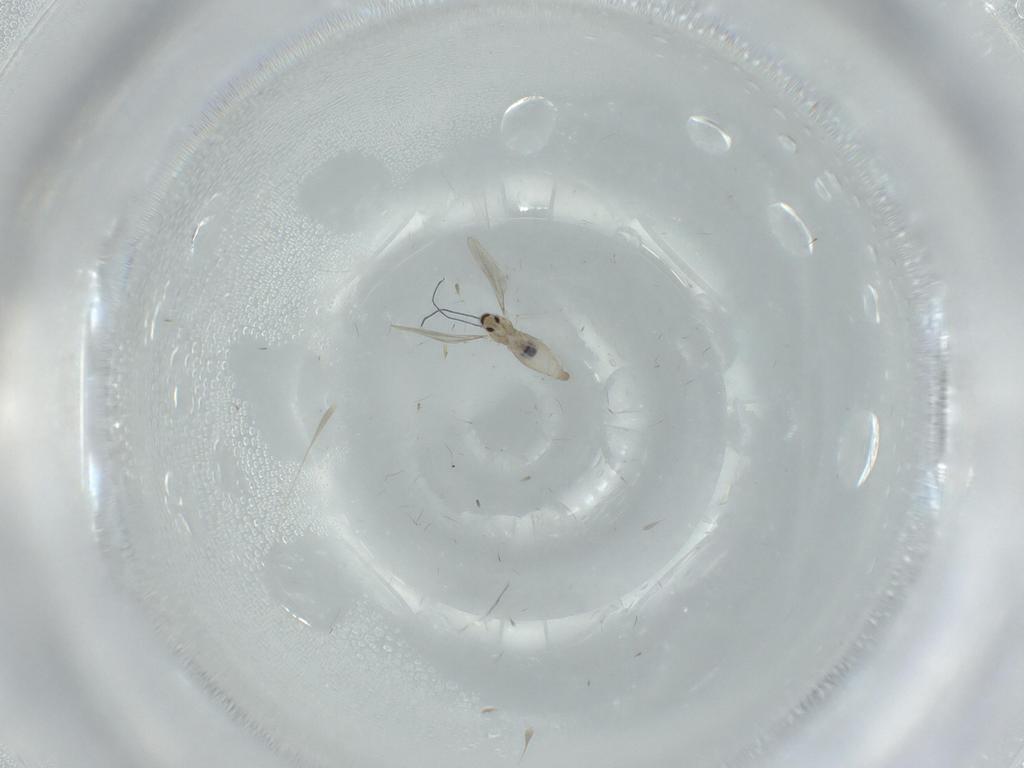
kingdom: Animalia
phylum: Arthropoda
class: Insecta
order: Diptera
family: Cecidomyiidae
